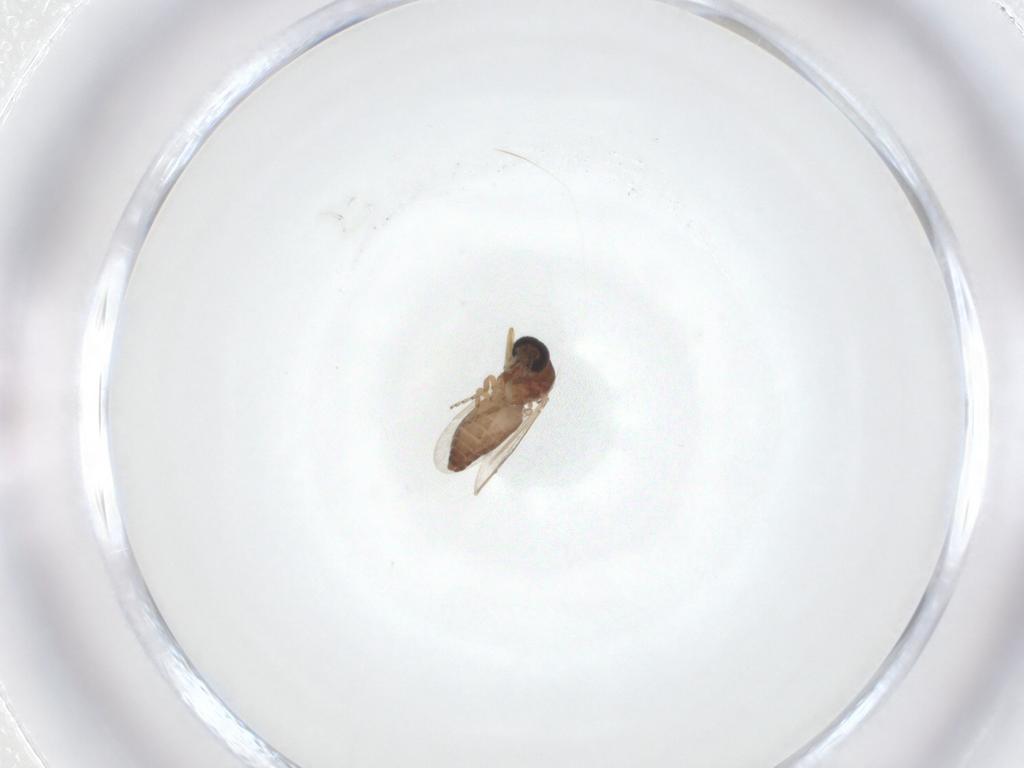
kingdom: Animalia
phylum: Arthropoda
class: Insecta
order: Diptera
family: Ceratopogonidae
